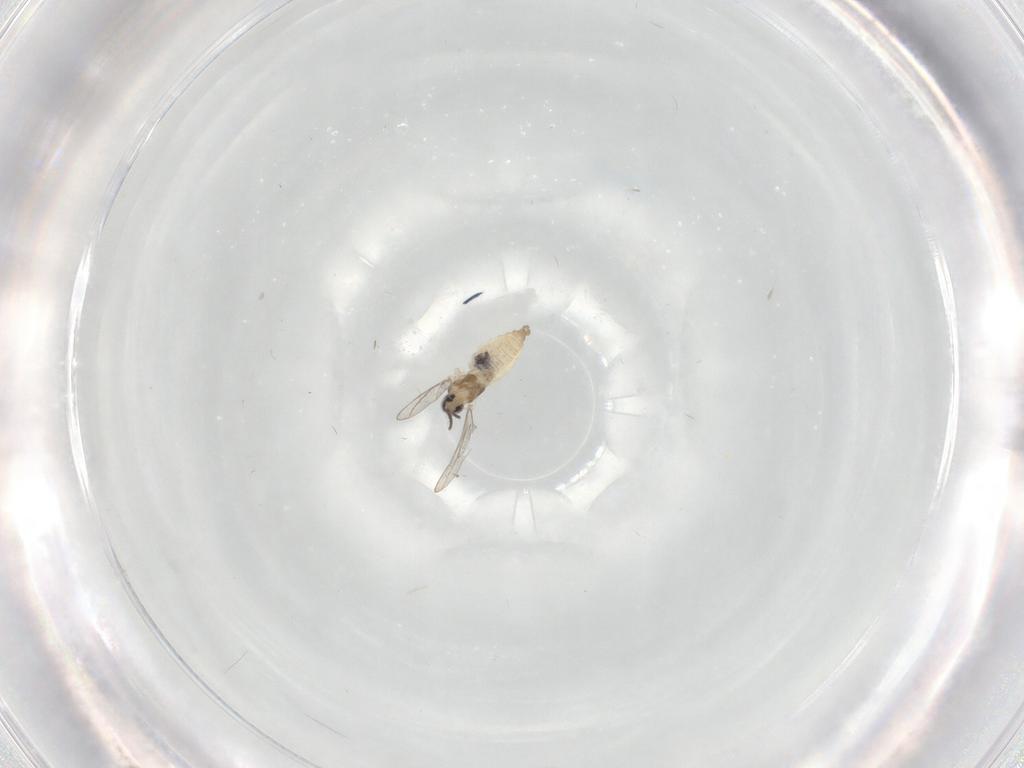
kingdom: Animalia
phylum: Arthropoda
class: Insecta
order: Diptera
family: Cecidomyiidae
